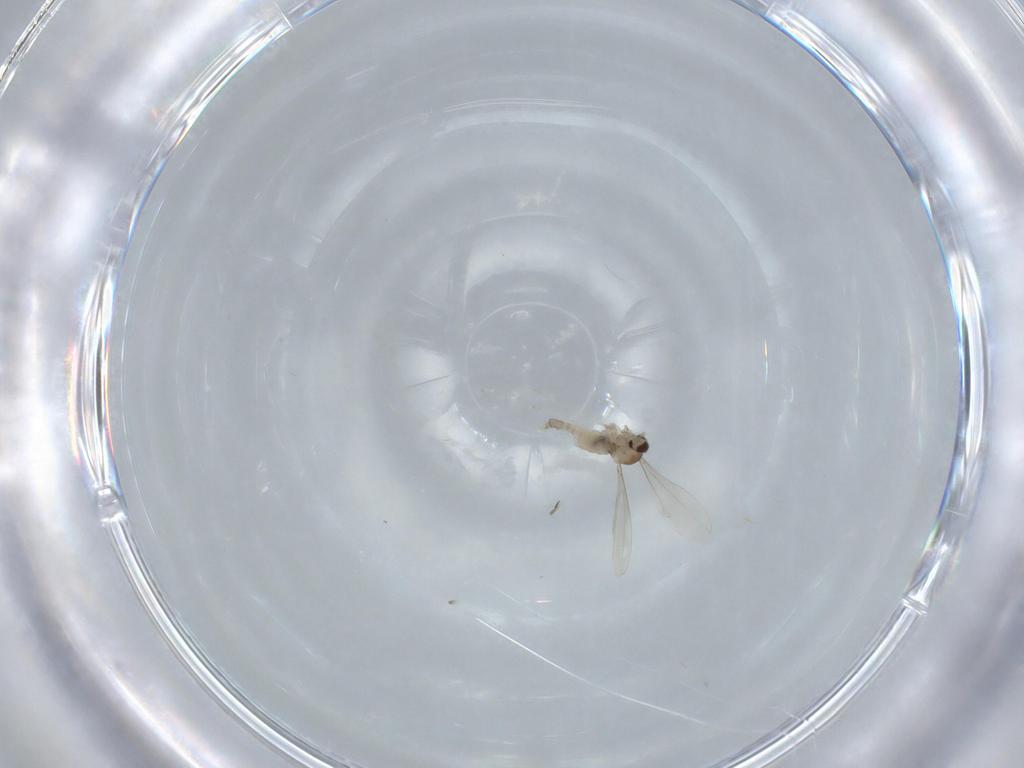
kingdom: Animalia
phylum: Arthropoda
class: Insecta
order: Diptera
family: Cecidomyiidae
